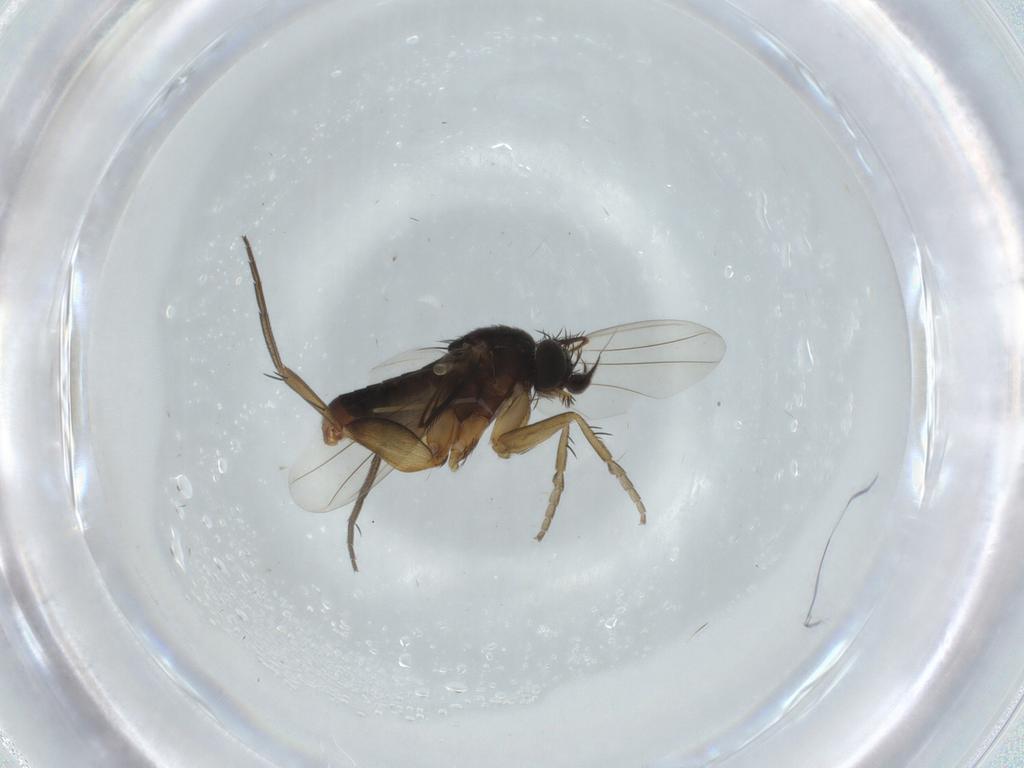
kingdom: Animalia
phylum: Arthropoda
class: Insecta
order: Diptera
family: Phoridae
